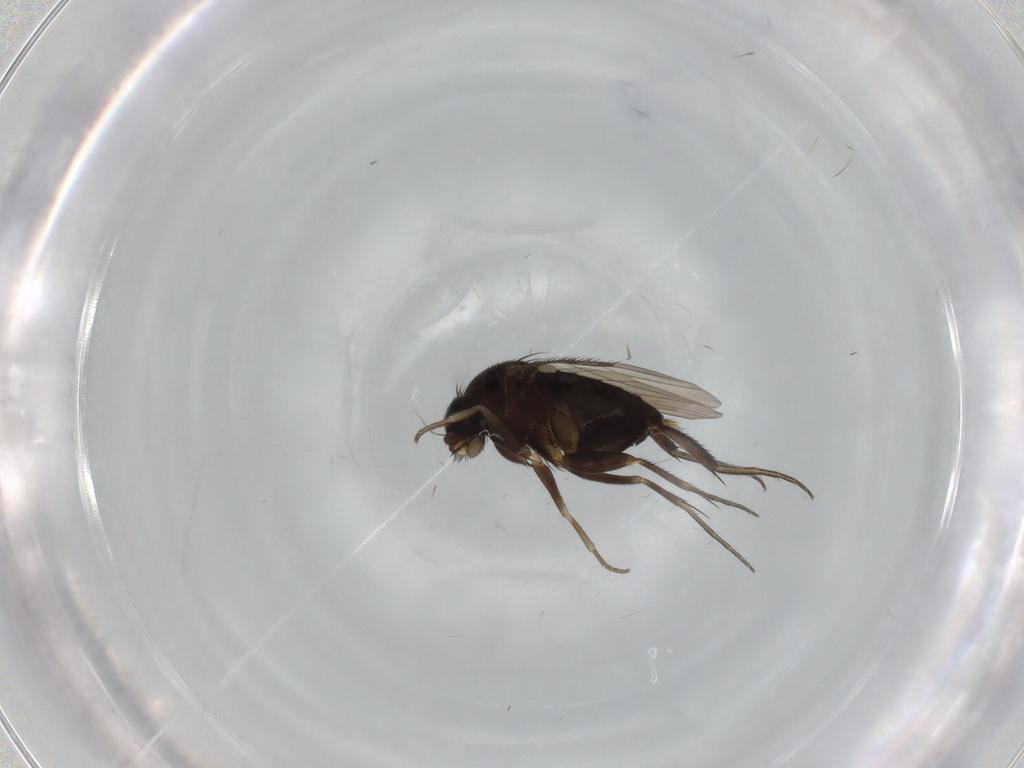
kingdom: Animalia
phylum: Arthropoda
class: Insecta
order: Diptera
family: Phoridae
